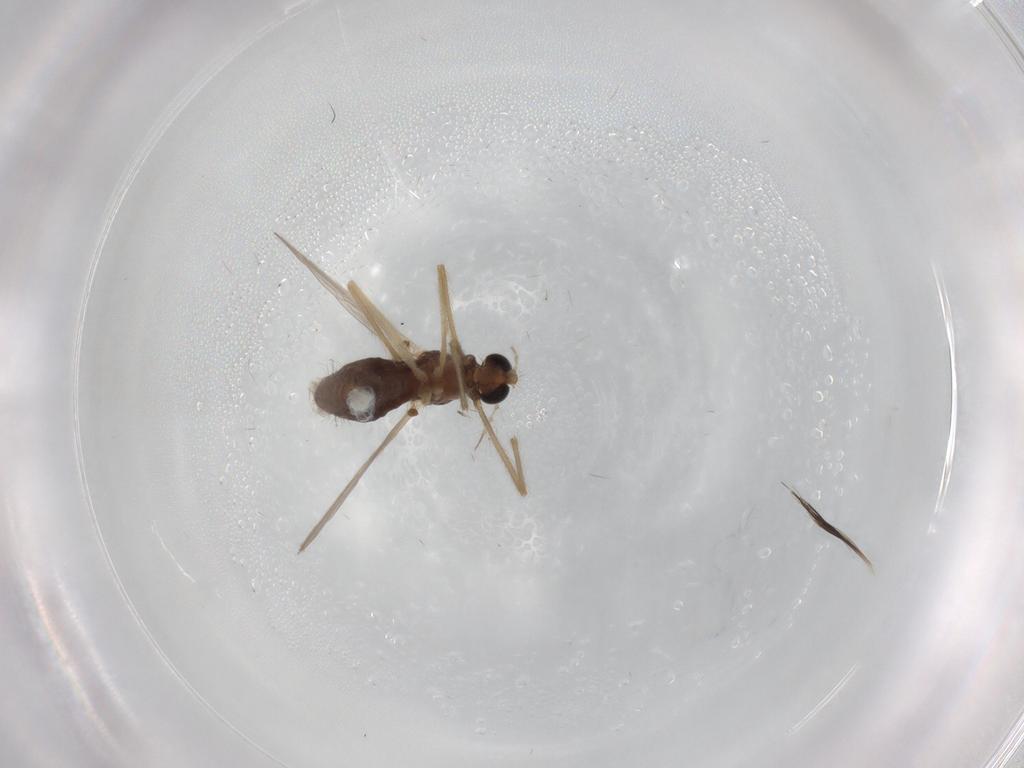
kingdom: Animalia
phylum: Arthropoda
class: Insecta
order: Diptera
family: Chironomidae
